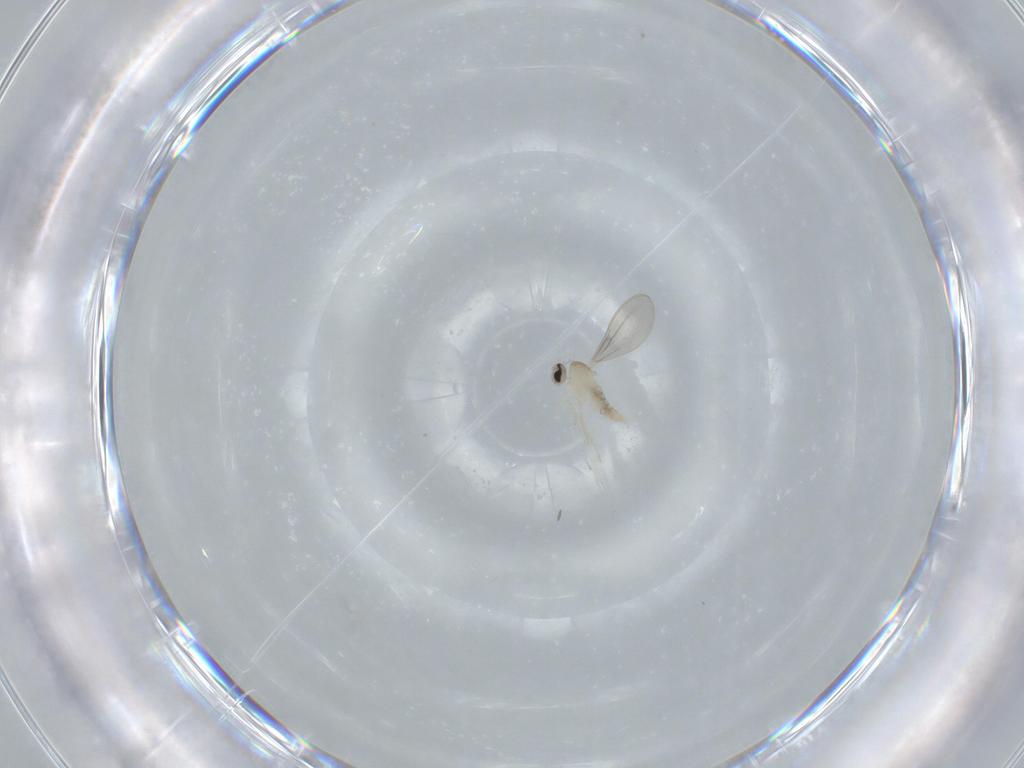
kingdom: Animalia
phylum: Arthropoda
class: Insecta
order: Diptera
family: Cecidomyiidae
